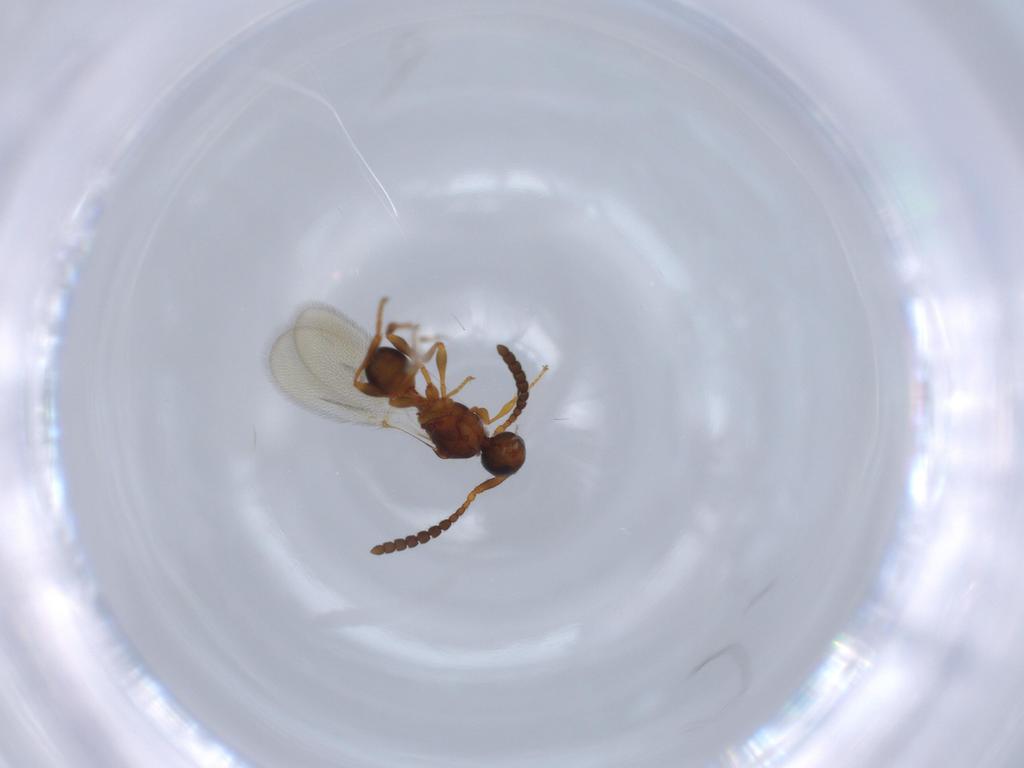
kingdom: Animalia
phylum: Arthropoda
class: Insecta
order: Hymenoptera
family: Diapriidae
